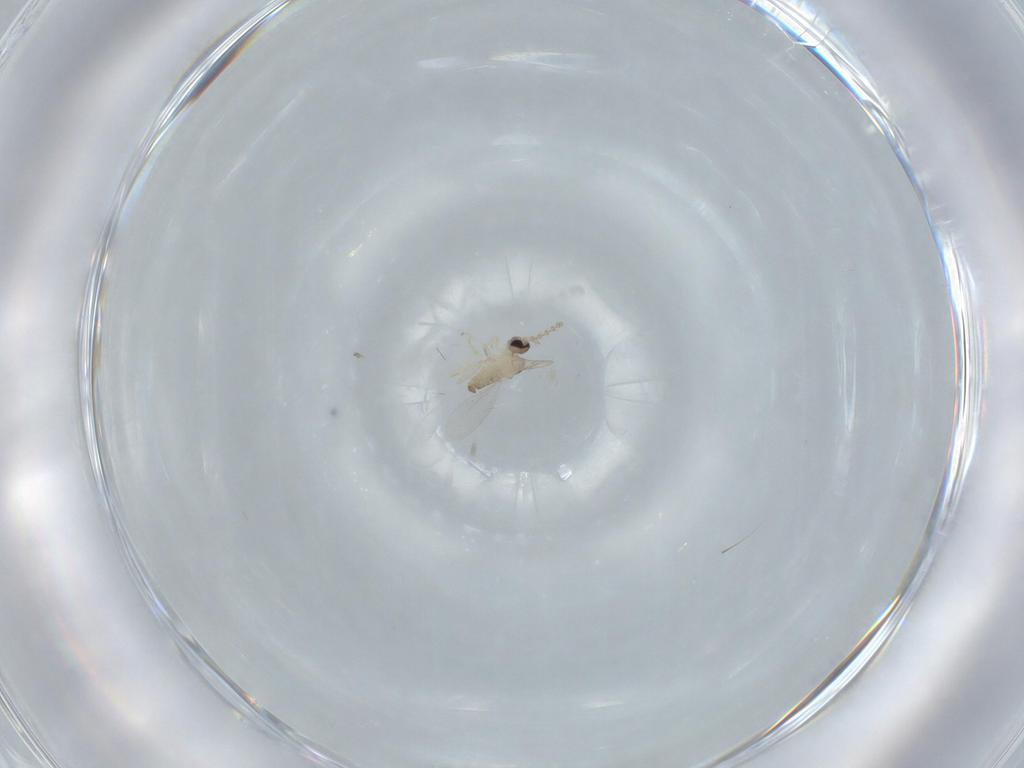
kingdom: Animalia
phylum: Arthropoda
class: Insecta
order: Diptera
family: Cecidomyiidae
